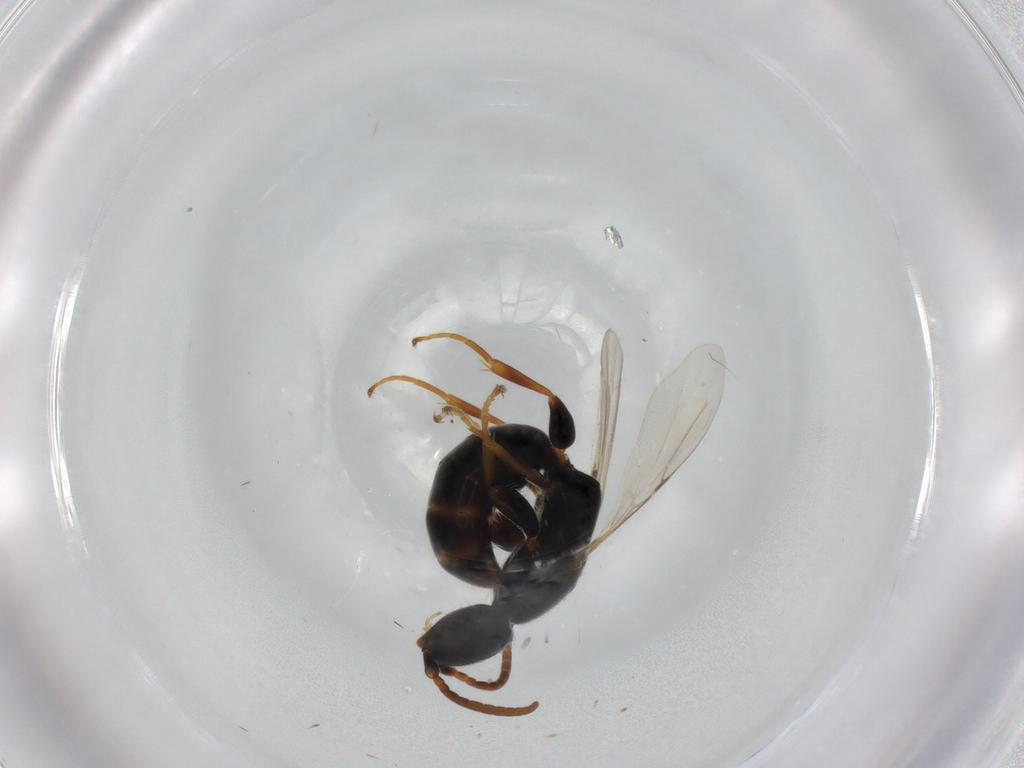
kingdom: Animalia
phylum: Arthropoda
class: Insecta
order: Hymenoptera
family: Bethylidae
